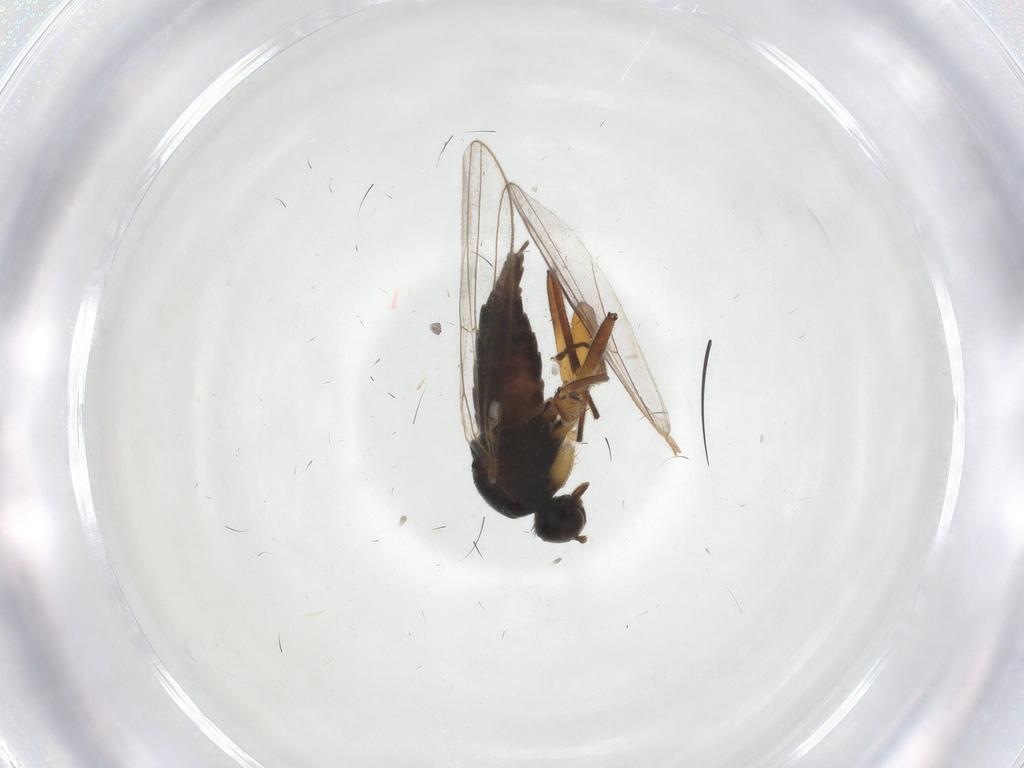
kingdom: Animalia
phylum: Arthropoda
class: Insecta
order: Diptera
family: Hybotidae
